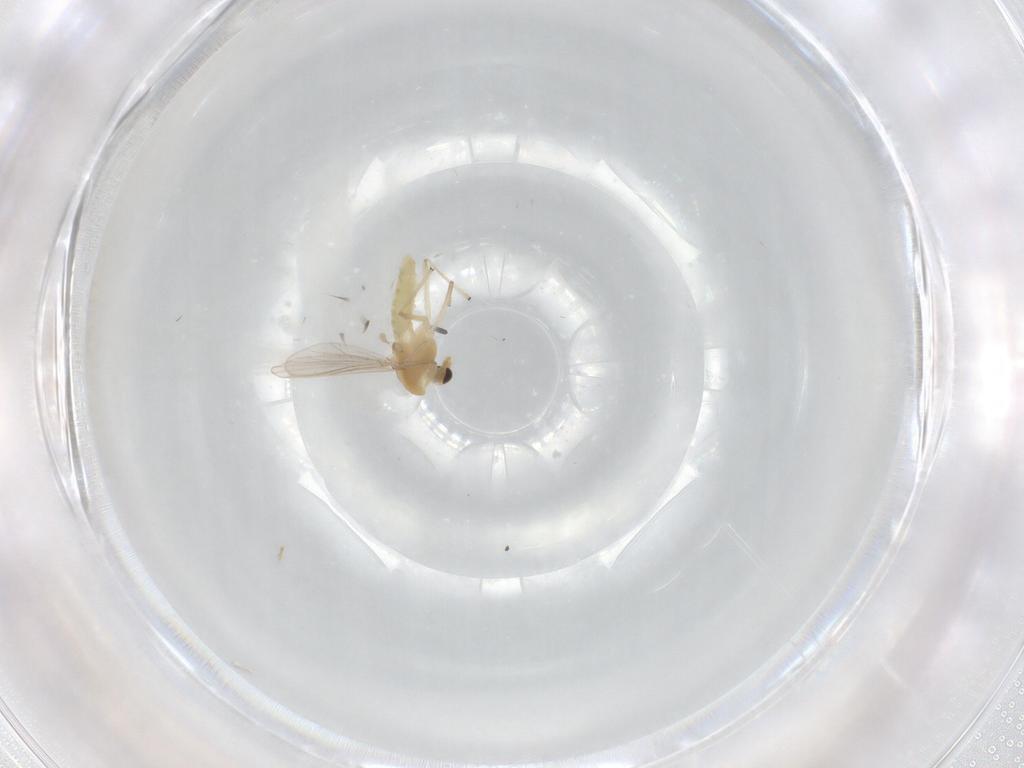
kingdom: Animalia
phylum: Arthropoda
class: Insecta
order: Diptera
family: Chironomidae
